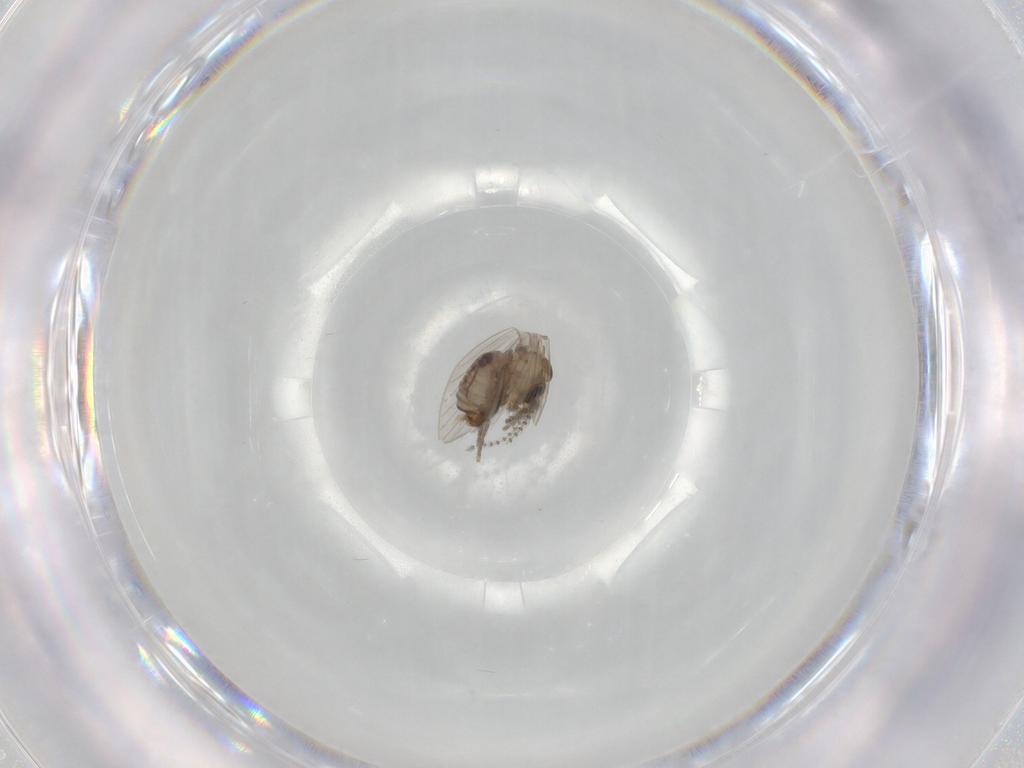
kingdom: Animalia
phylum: Arthropoda
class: Insecta
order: Diptera
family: Psychodidae
